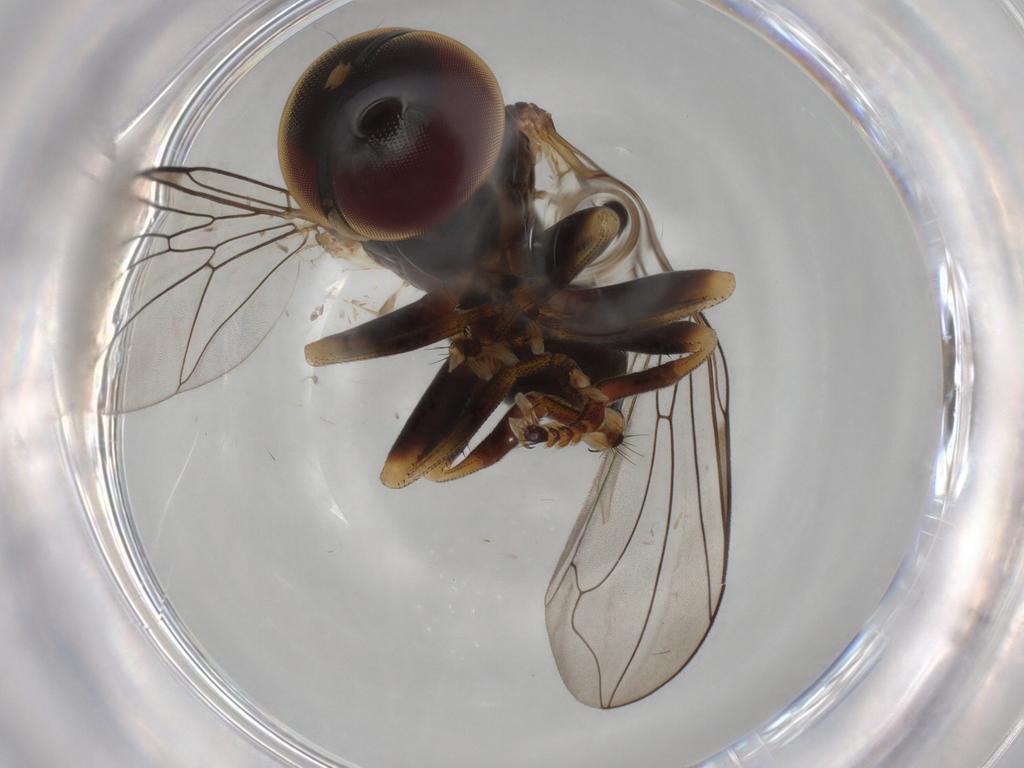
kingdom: Animalia
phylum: Arthropoda
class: Insecta
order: Diptera
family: Pipunculidae
